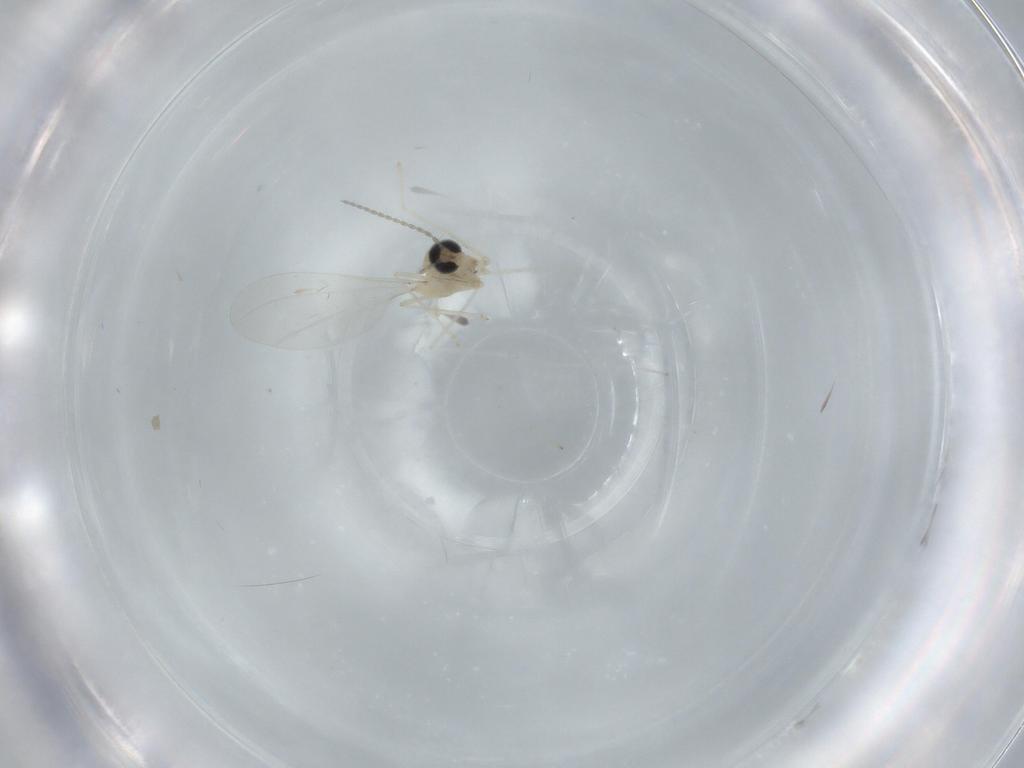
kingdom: Animalia
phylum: Arthropoda
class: Insecta
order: Diptera
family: Cecidomyiidae
